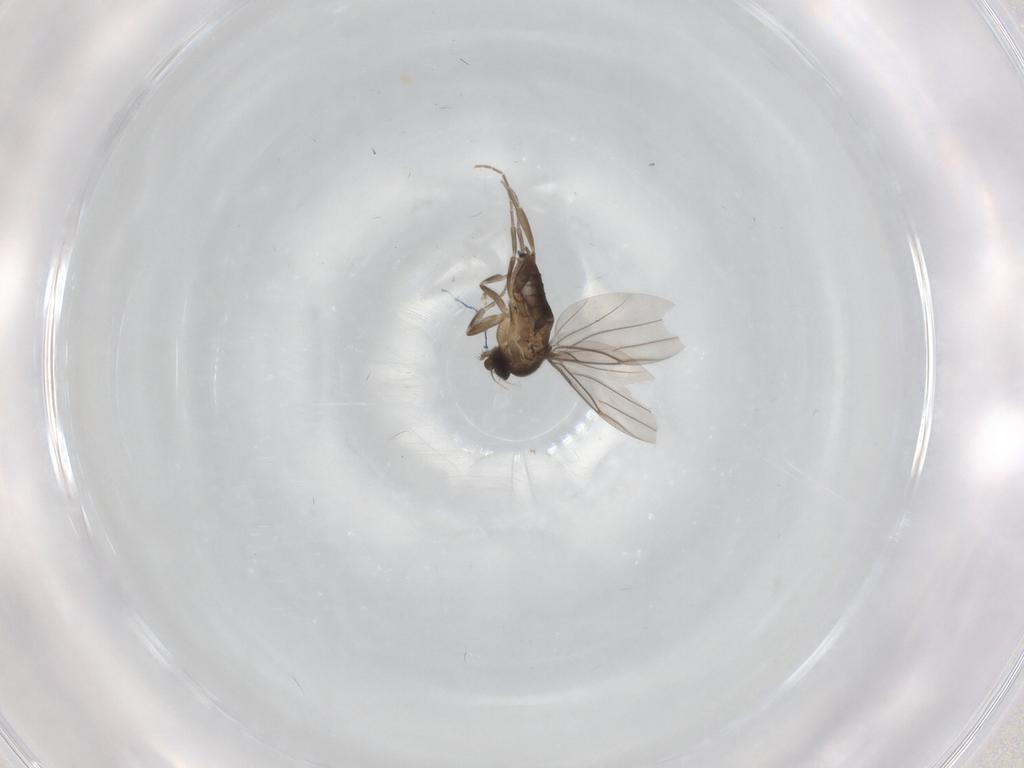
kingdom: Animalia
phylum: Arthropoda
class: Insecta
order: Diptera
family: Chironomidae
